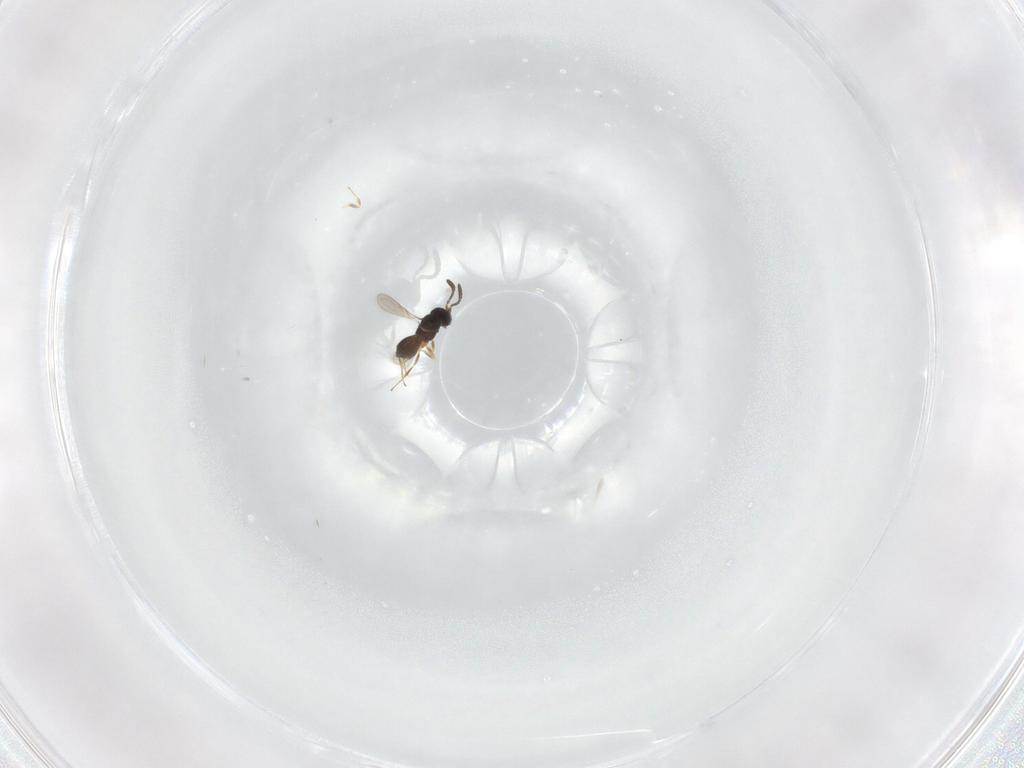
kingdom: Animalia
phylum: Arthropoda
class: Insecta
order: Hymenoptera
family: Scelionidae
